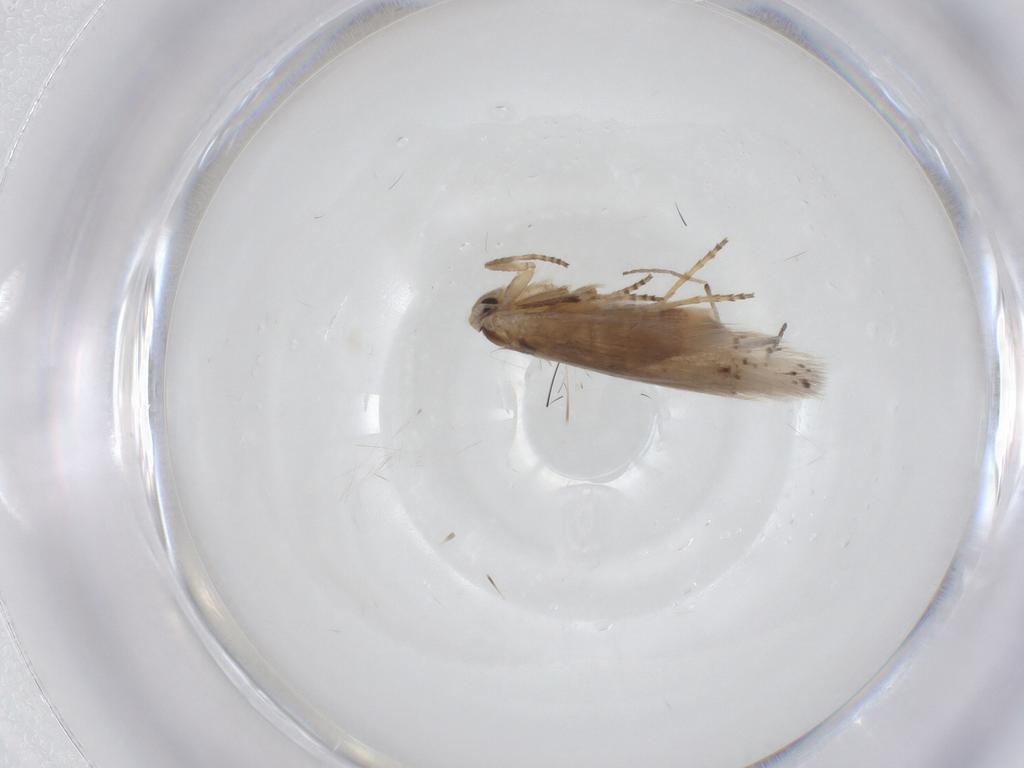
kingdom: Animalia
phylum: Arthropoda
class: Insecta
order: Lepidoptera
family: Bucculatricidae
